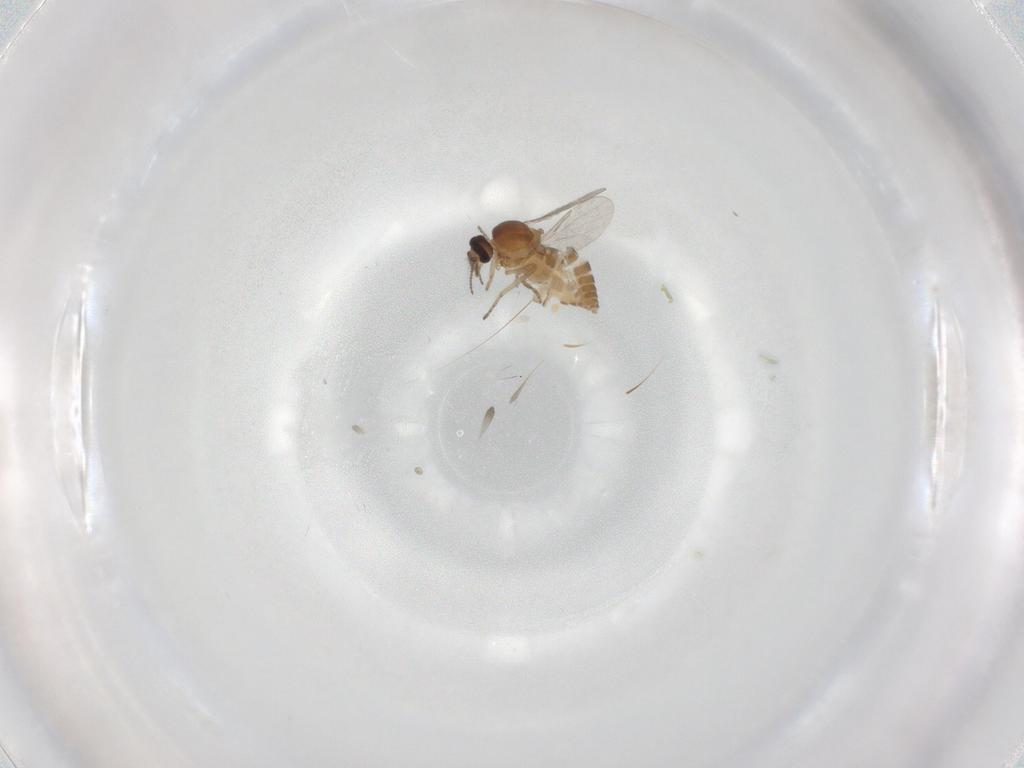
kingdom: Animalia
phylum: Arthropoda
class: Insecta
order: Diptera
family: Ceratopogonidae
